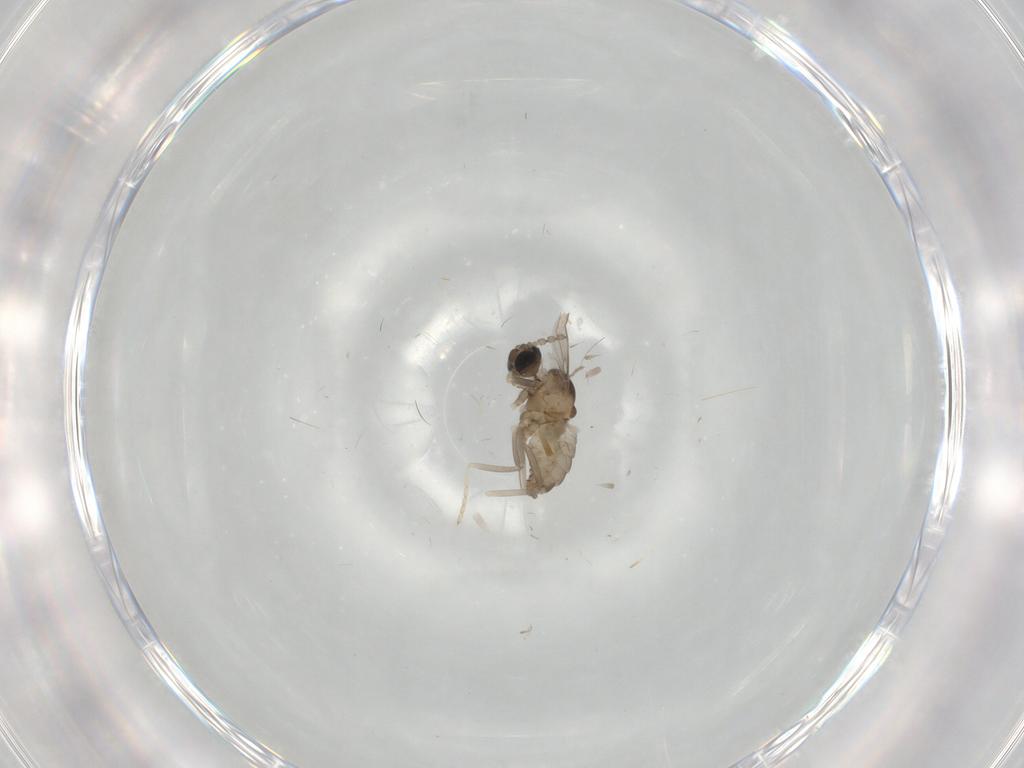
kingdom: Animalia
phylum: Arthropoda
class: Insecta
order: Diptera
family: Cecidomyiidae
